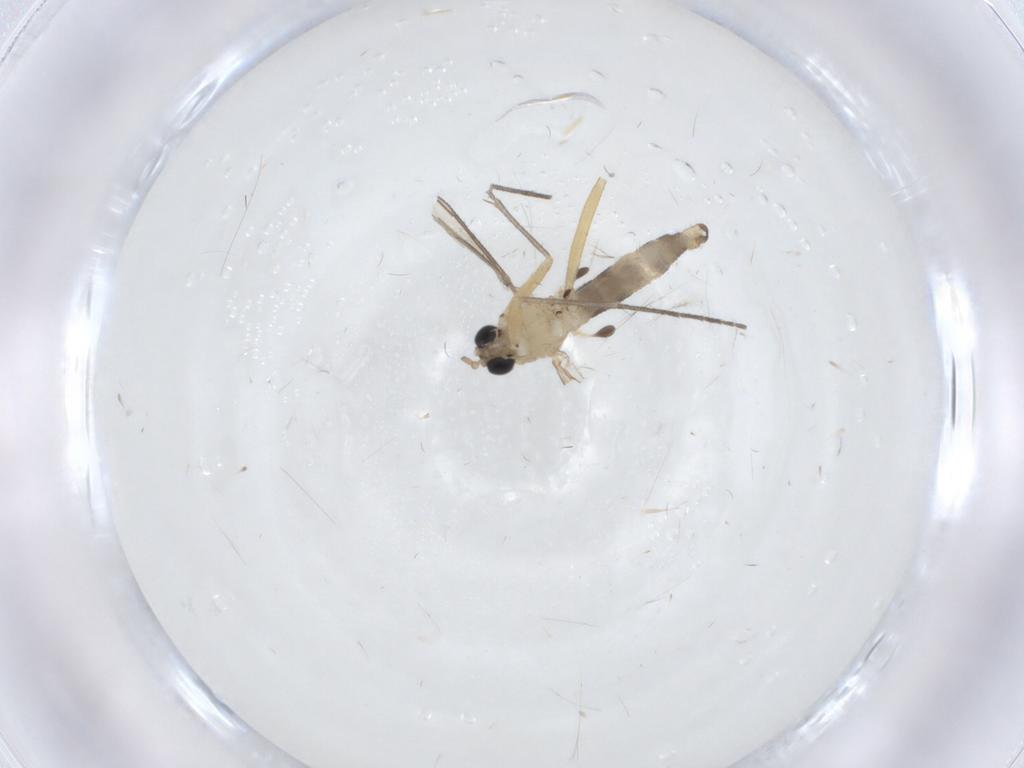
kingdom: Animalia
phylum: Arthropoda
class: Insecta
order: Diptera
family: Sciaridae
